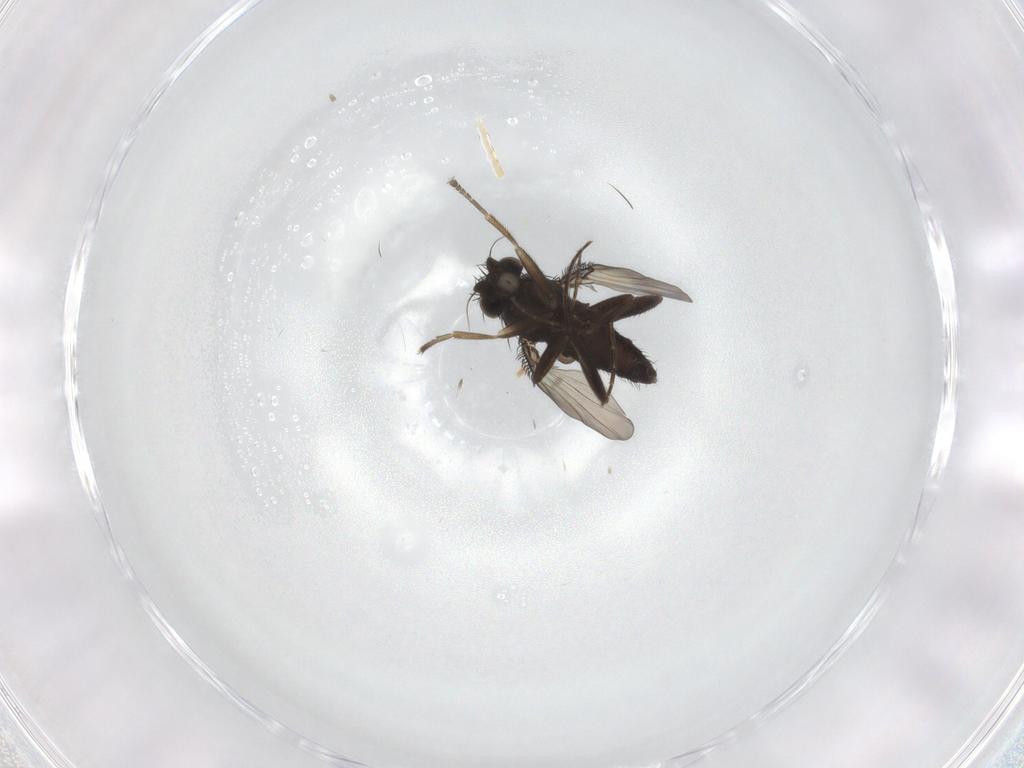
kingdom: Animalia
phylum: Arthropoda
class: Insecta
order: Diptera
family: Phoridae
